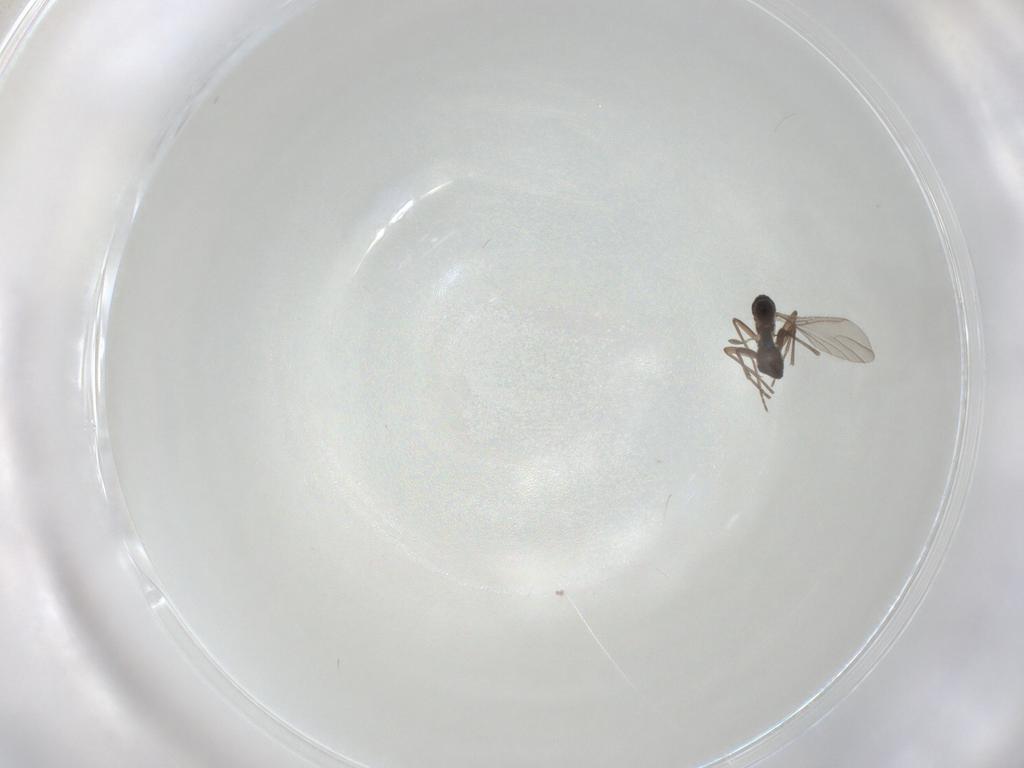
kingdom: Animalia
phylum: Arthropoda
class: Insecta
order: Diptera
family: Sciaridae
